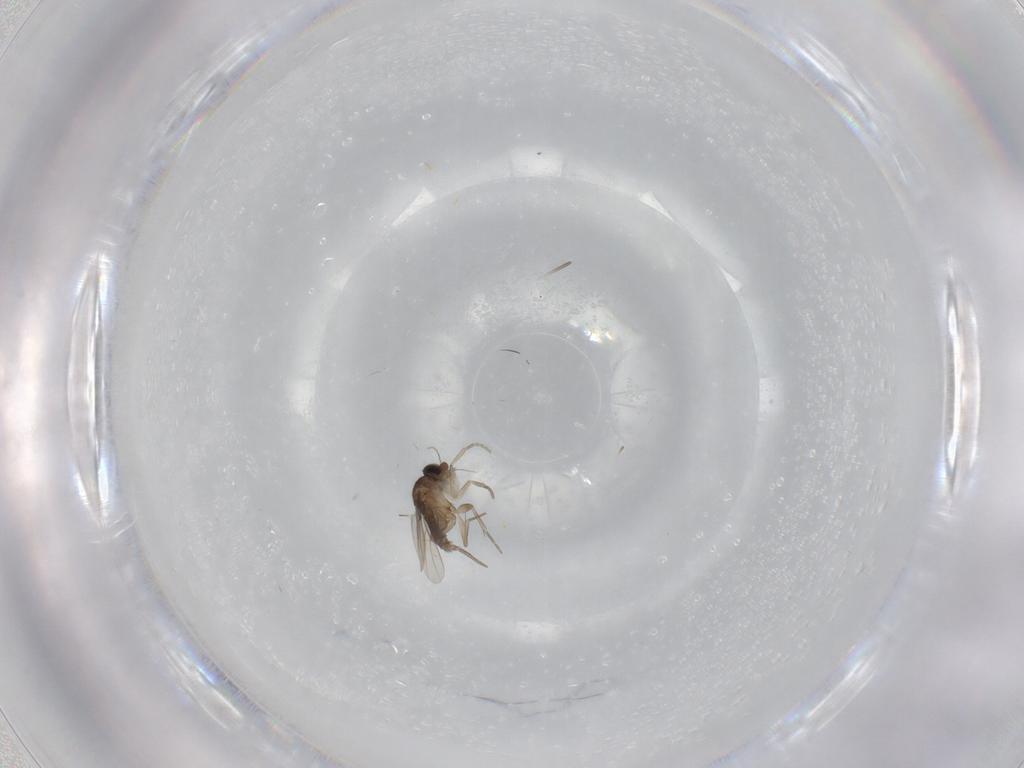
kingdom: Animalia
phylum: Arthropoda
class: Insecta
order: Diptera
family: Phoridae
